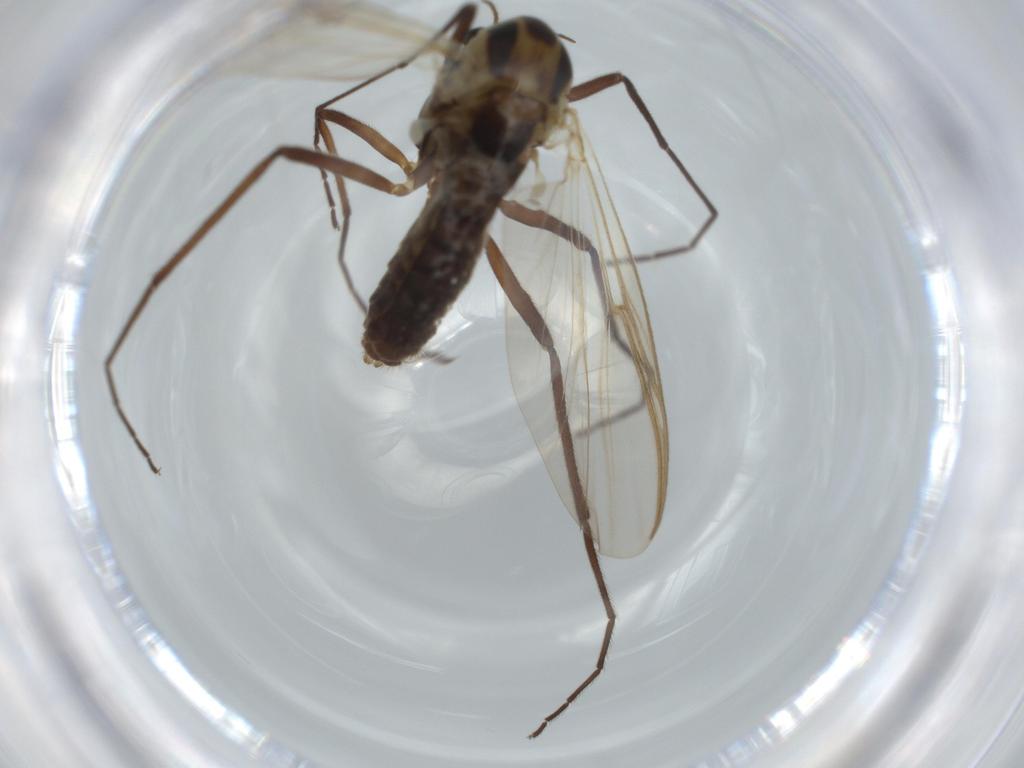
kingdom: Animalia
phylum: Arthropoda
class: Insecta
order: Diptera
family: Cecidomyiidae
